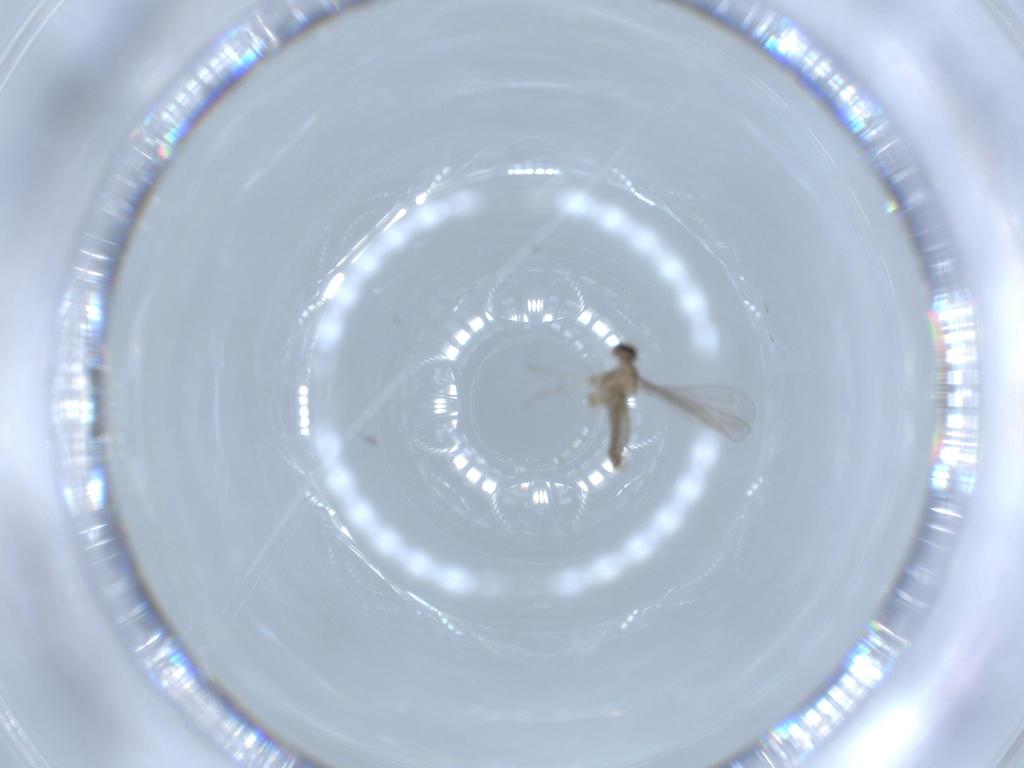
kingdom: Animalia
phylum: Arthropoda
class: Insecta
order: Diptera
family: Cecidomyiidae
